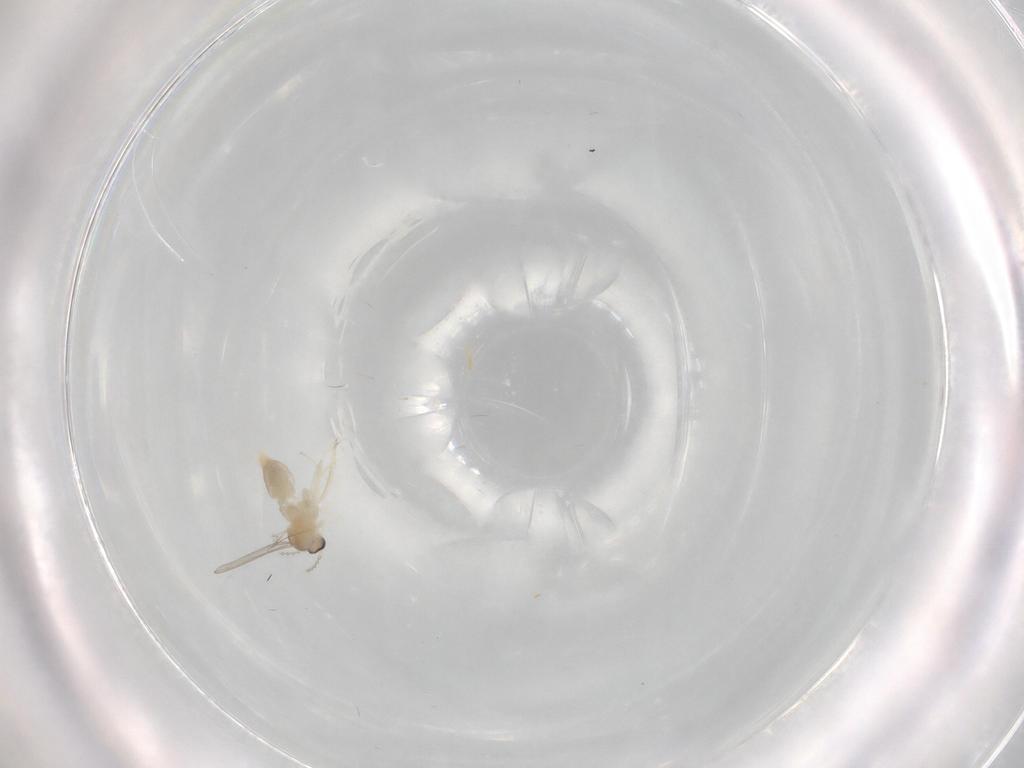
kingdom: Animalia
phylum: Arthropoda
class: Insecta
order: Diptera
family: Cecidomyiidae
